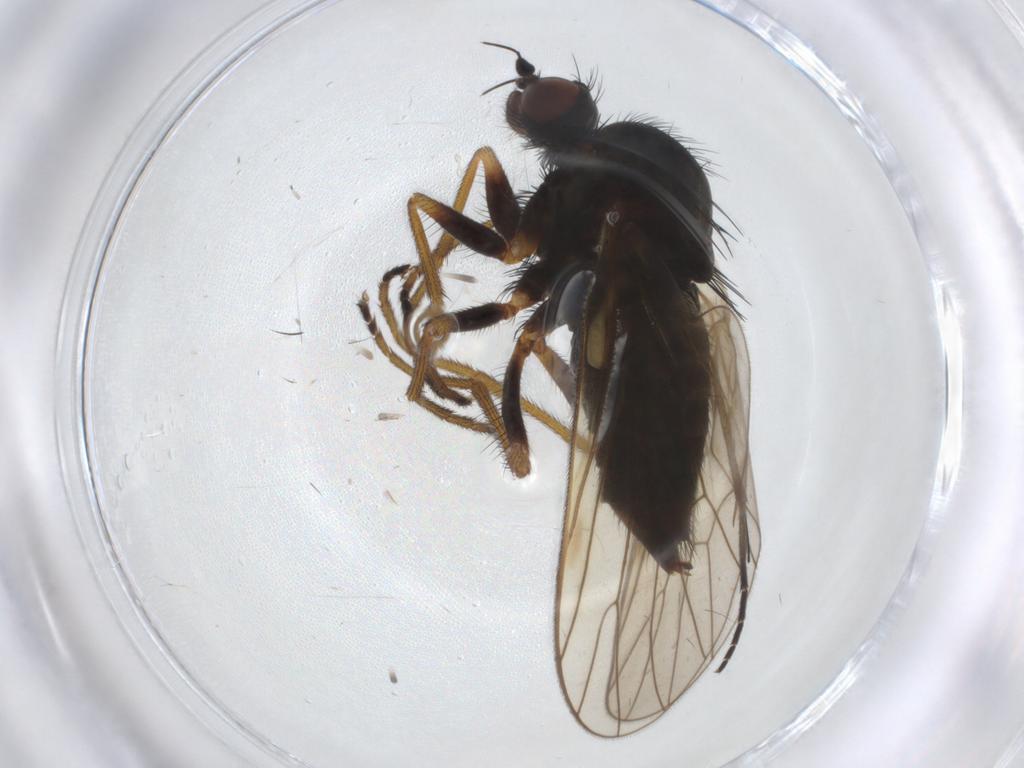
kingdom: Animalia
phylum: Arthropoda
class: Insecta
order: Diptera
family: Brachystomatidae
